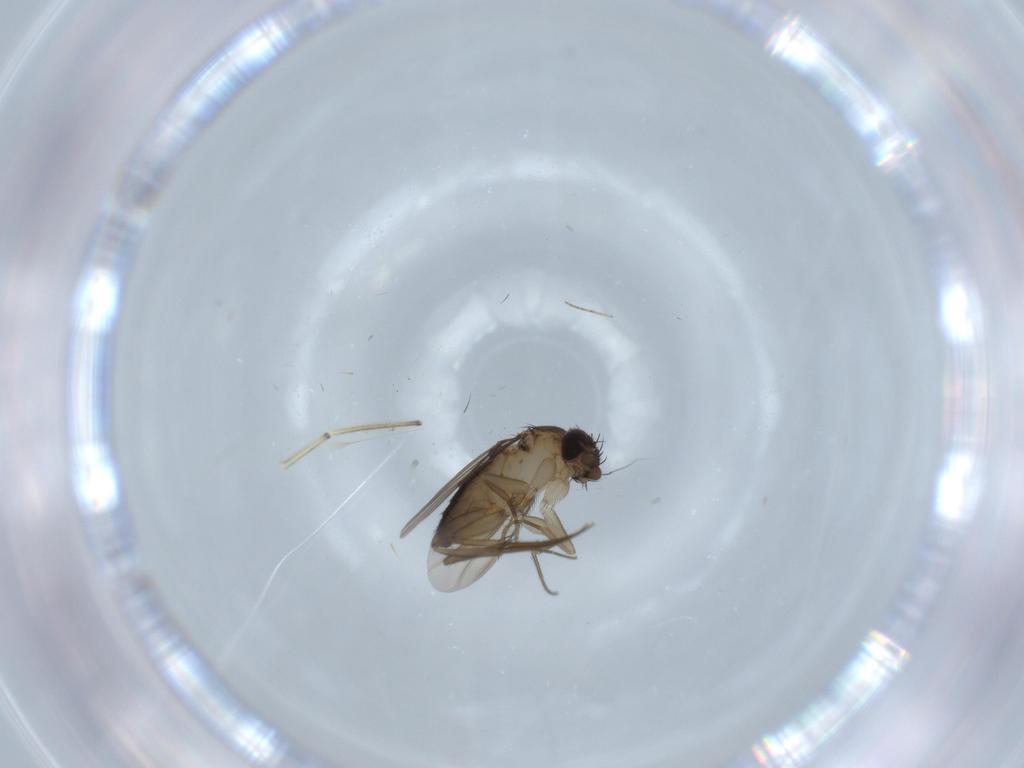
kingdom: Animalia
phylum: Arthropoda
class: Insecta
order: Diptera
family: Phoridae
